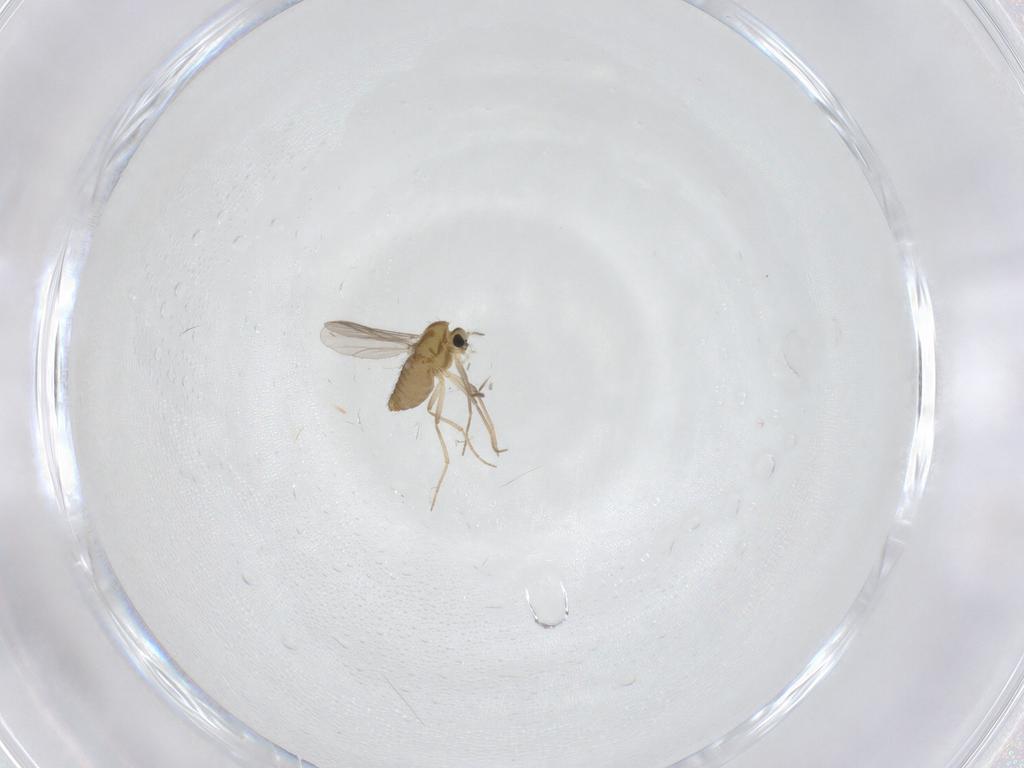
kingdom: Animalia
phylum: Arthropoda
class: Insecta
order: Diptera
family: Chironomidae
